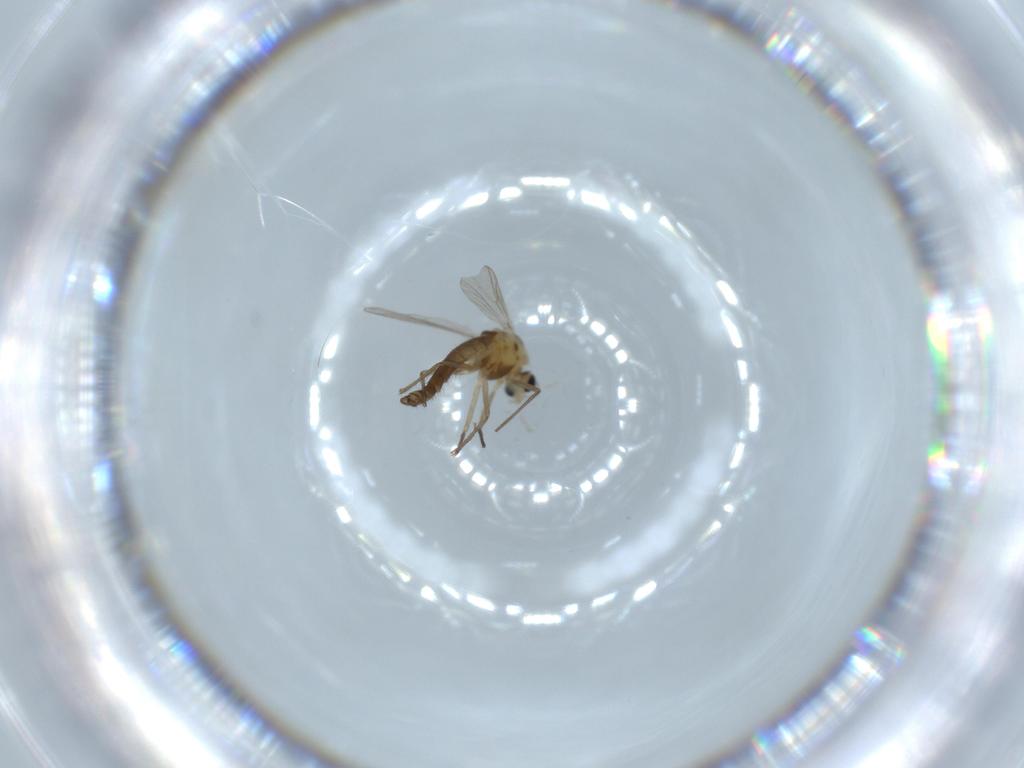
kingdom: Animalia
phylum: Arthropoda
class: Insecta
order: Diptera
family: Chironomidae
